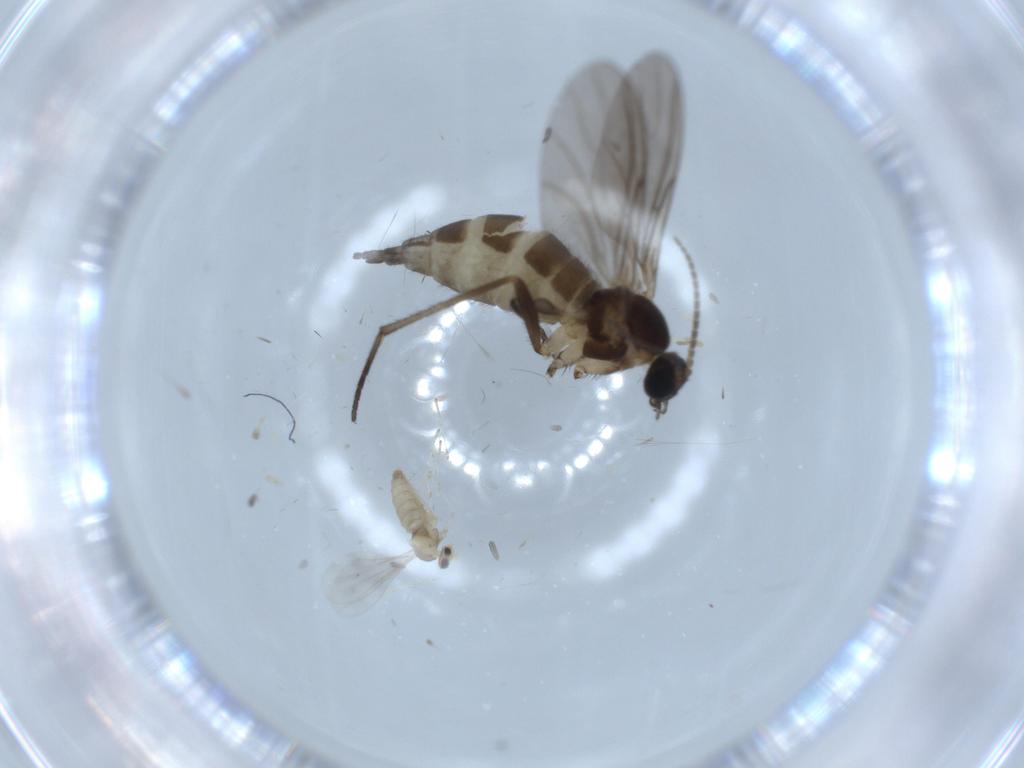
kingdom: Animalia
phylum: Arthropoda
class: Insecta
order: Diptera
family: Sciaridae
